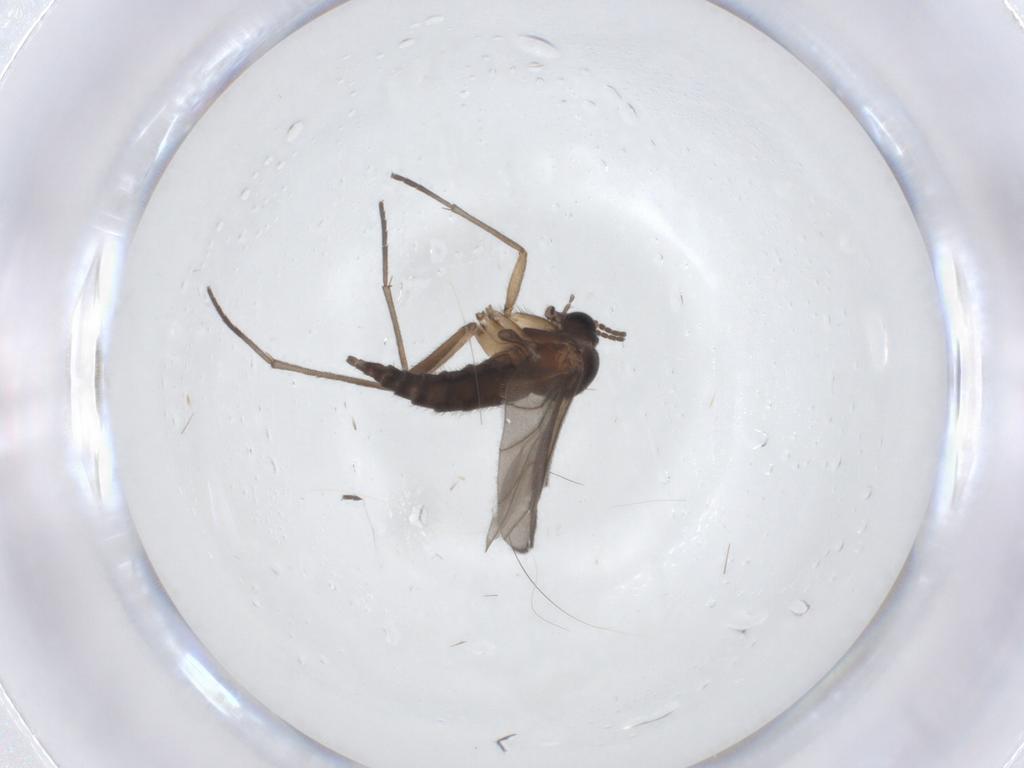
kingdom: Animalia
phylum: Arthropoda
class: Insecta
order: Diptera
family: Sciaridae
